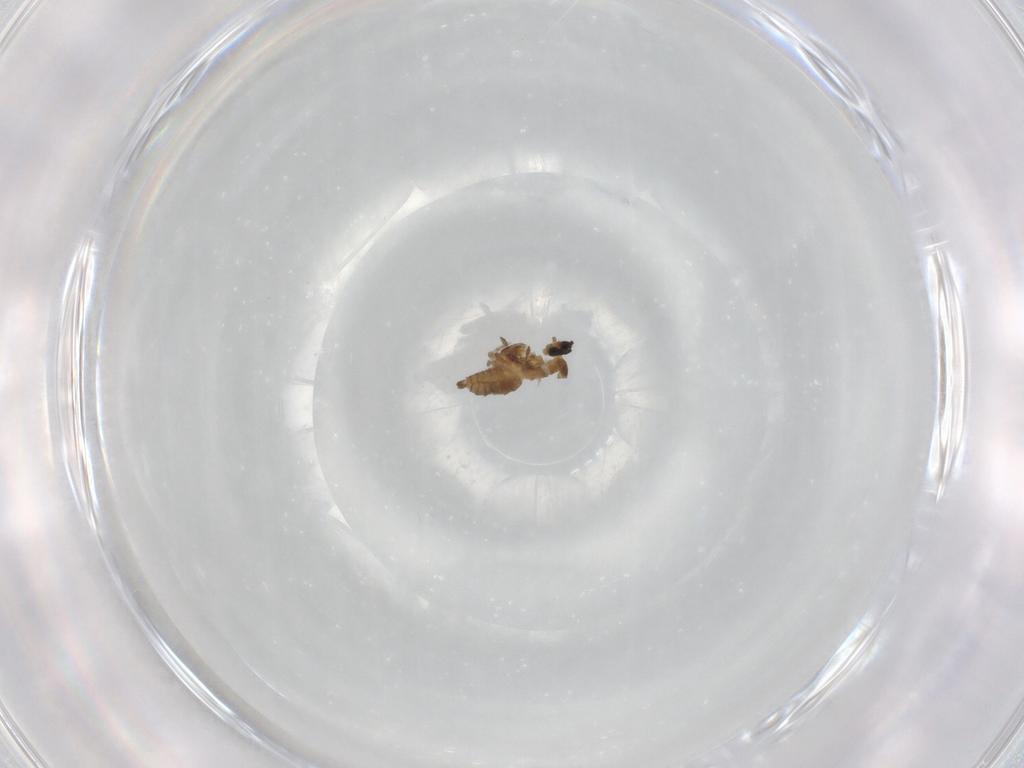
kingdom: Animalia
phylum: Arthropoda
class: Insecta
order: Diptera
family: Cecidomyiidae
